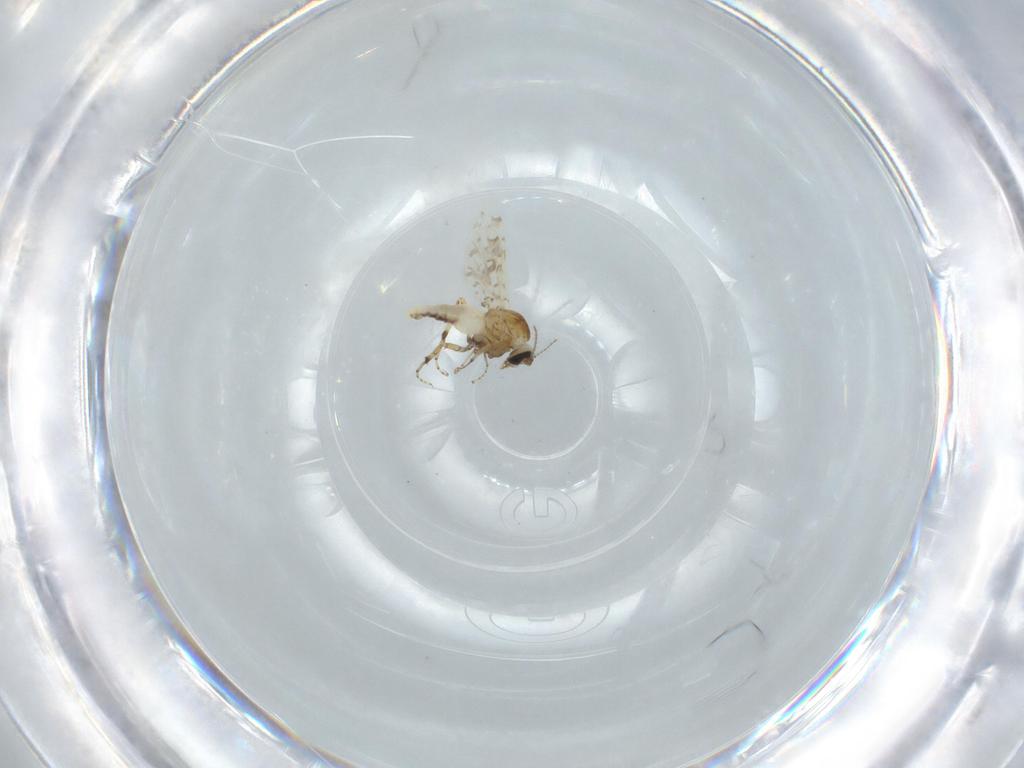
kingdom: Animalia
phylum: Arthropoda
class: Insecta
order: Diptera
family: Ceratopogonidae
